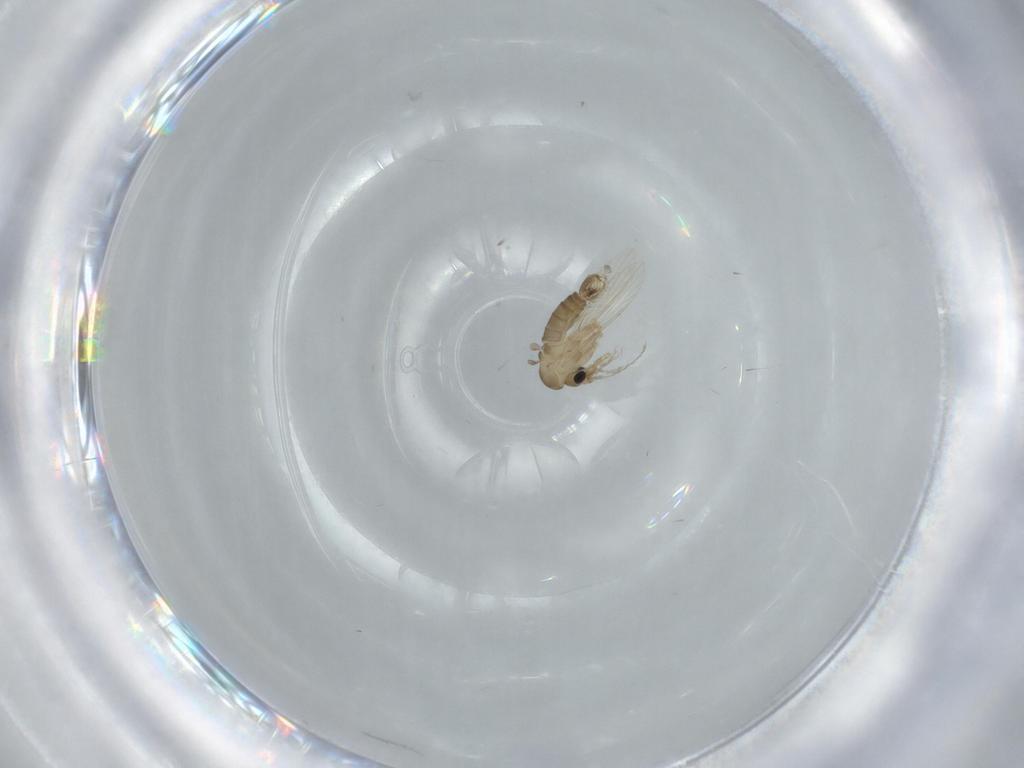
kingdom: Animalia
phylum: Arthropoda
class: Insecta
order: Diptera
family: Psychodidae
